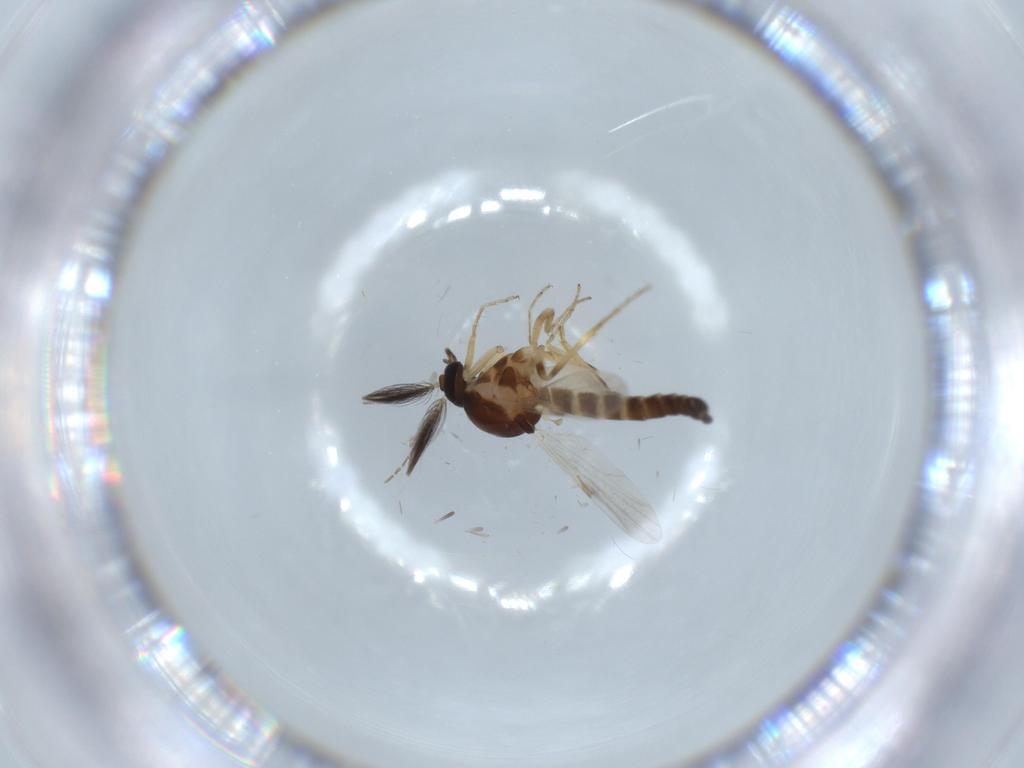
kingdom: Animalia
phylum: Arthropoda
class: Insecta
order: Diptera
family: Ceratopogonidae
